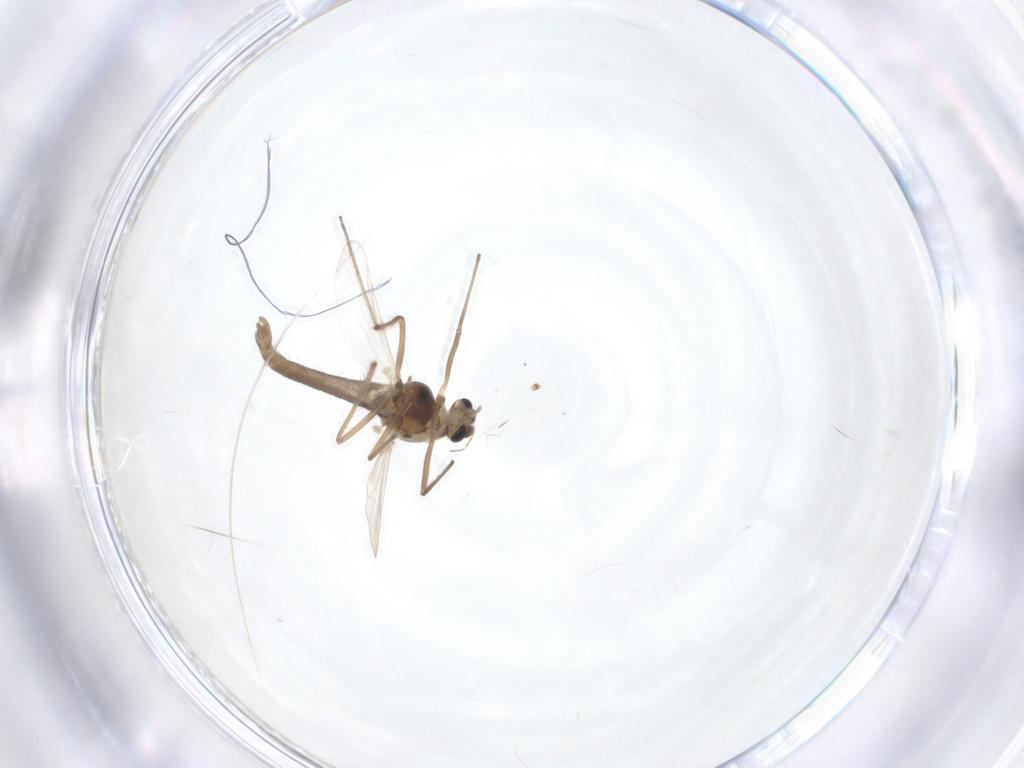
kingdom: Animalia
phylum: Arthropoda
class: Insecta
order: Diptera
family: Chironomidae
